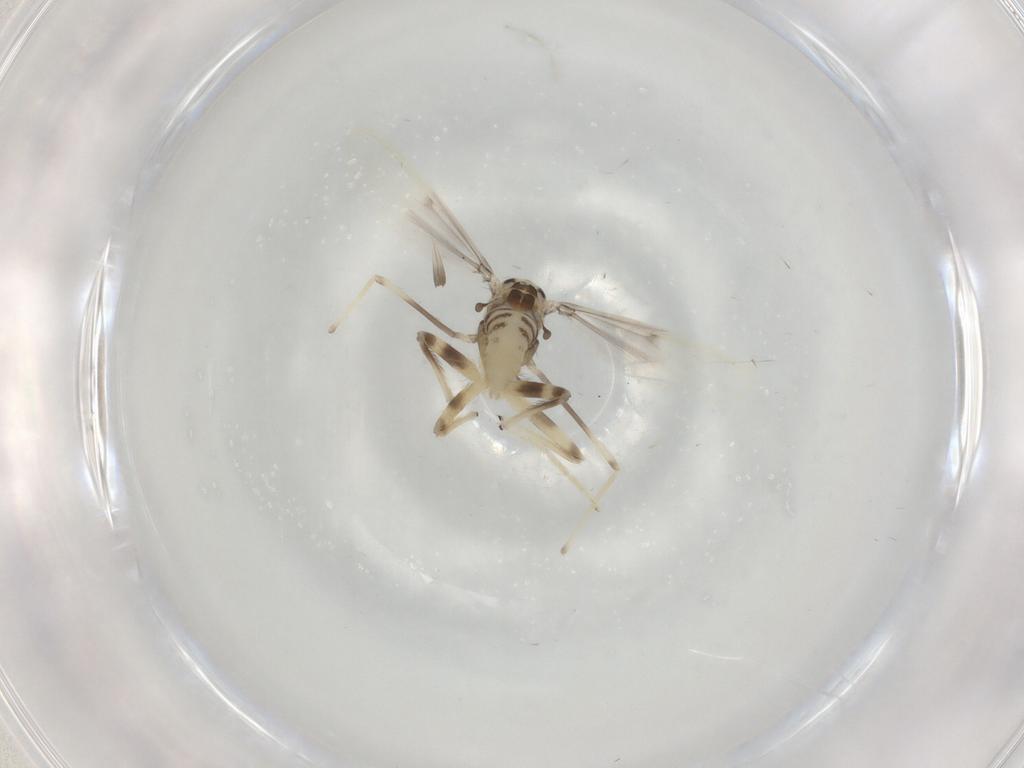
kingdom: Animalia
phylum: Arthropoda
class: Insecta
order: Diptera
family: Chironomidae
